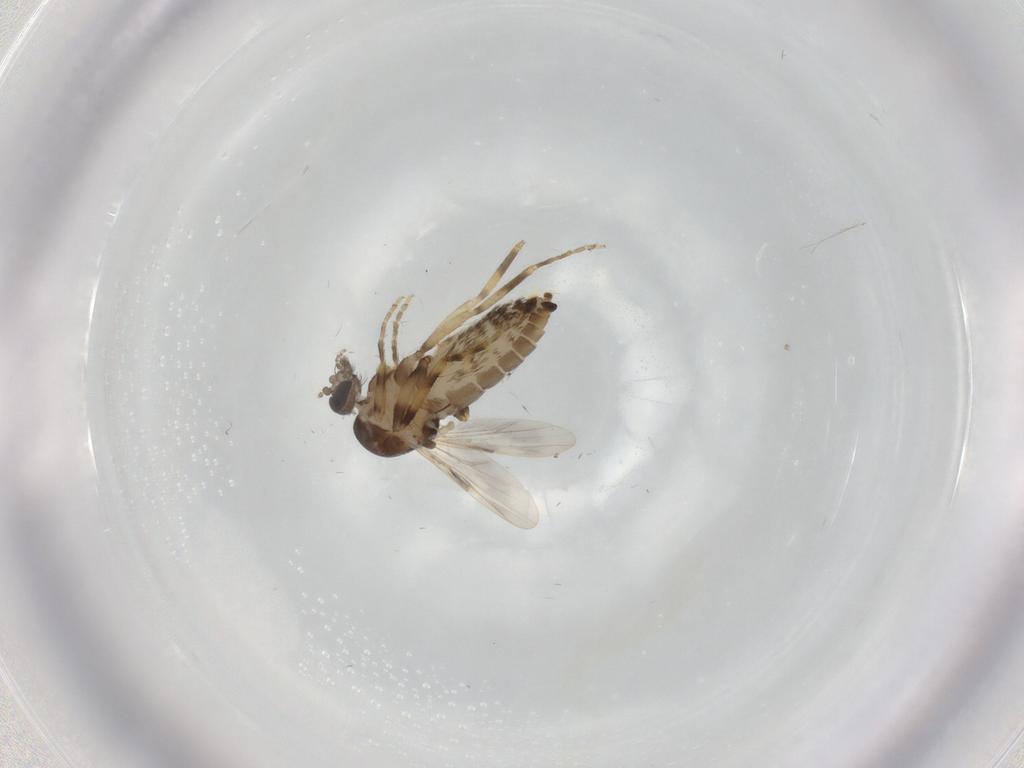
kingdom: Animalia
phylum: Arthropoda
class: Insecta
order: Diptera
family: Ceratopogonidae
